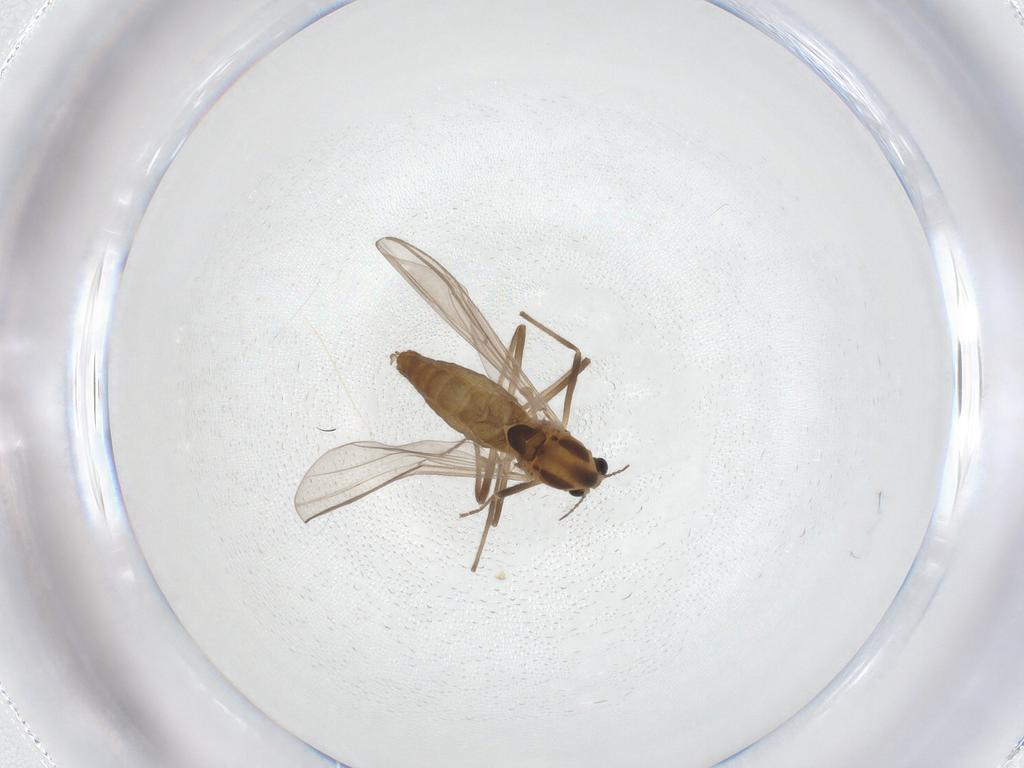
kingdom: Animalia
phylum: Arthropoda
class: Insecta
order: Diptera
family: Chironomidae
